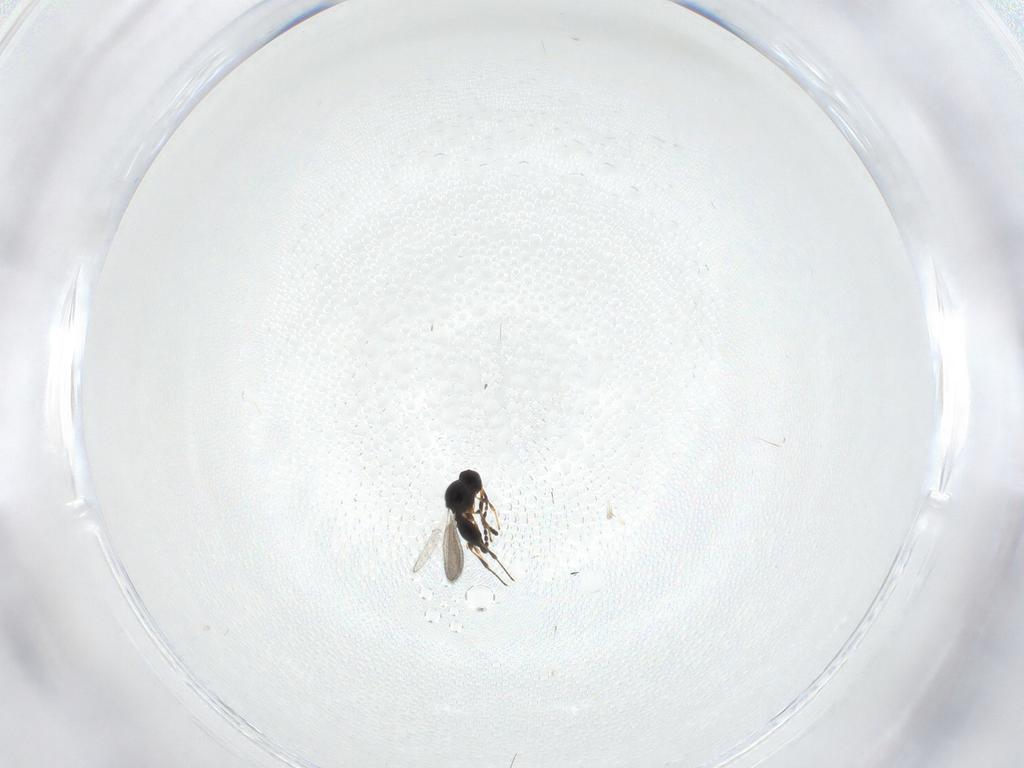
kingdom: Animalia
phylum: Arthropoda
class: Insecta
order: Hymenoptera
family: Platygastridae
